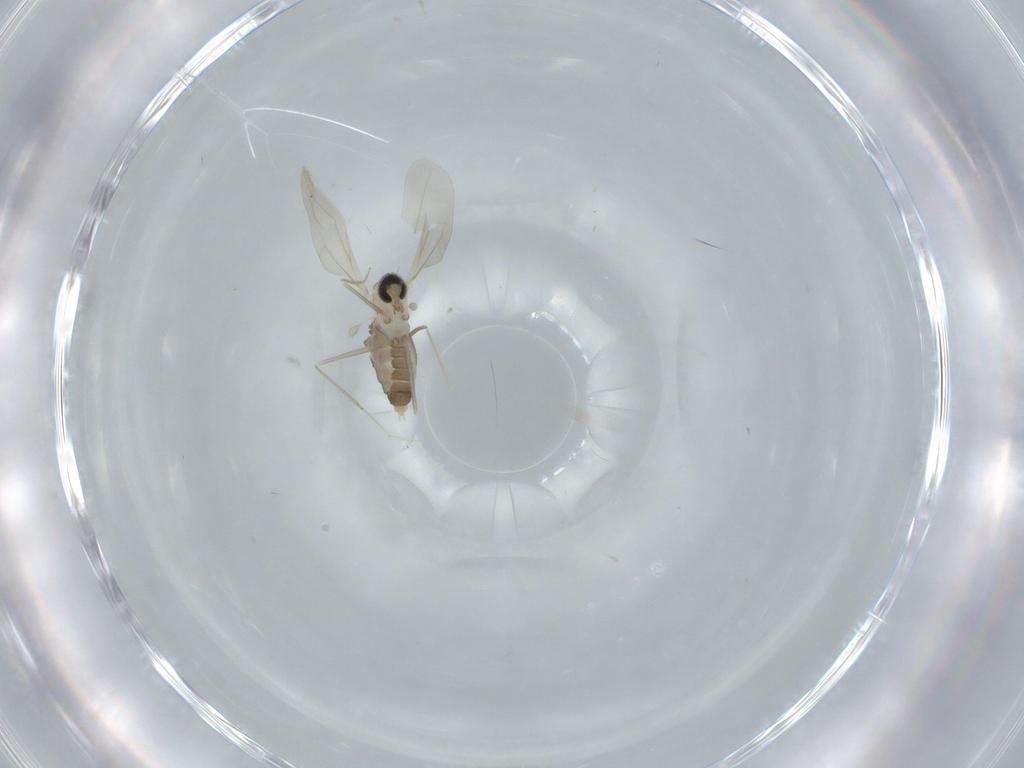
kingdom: Animalia
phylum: Arthropoda
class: Insecta
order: Diptera
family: Cecidomyiidae
